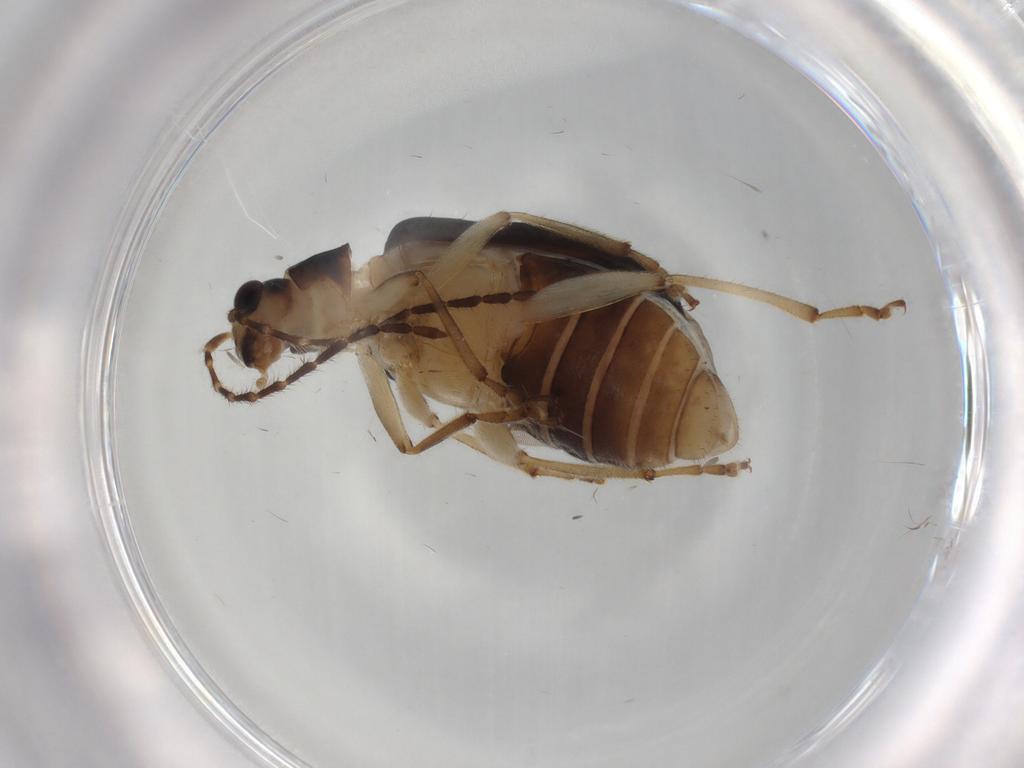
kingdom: Animalia
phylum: Arthropoda
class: Insecta
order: Coleoptera
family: Chrysomelidae
